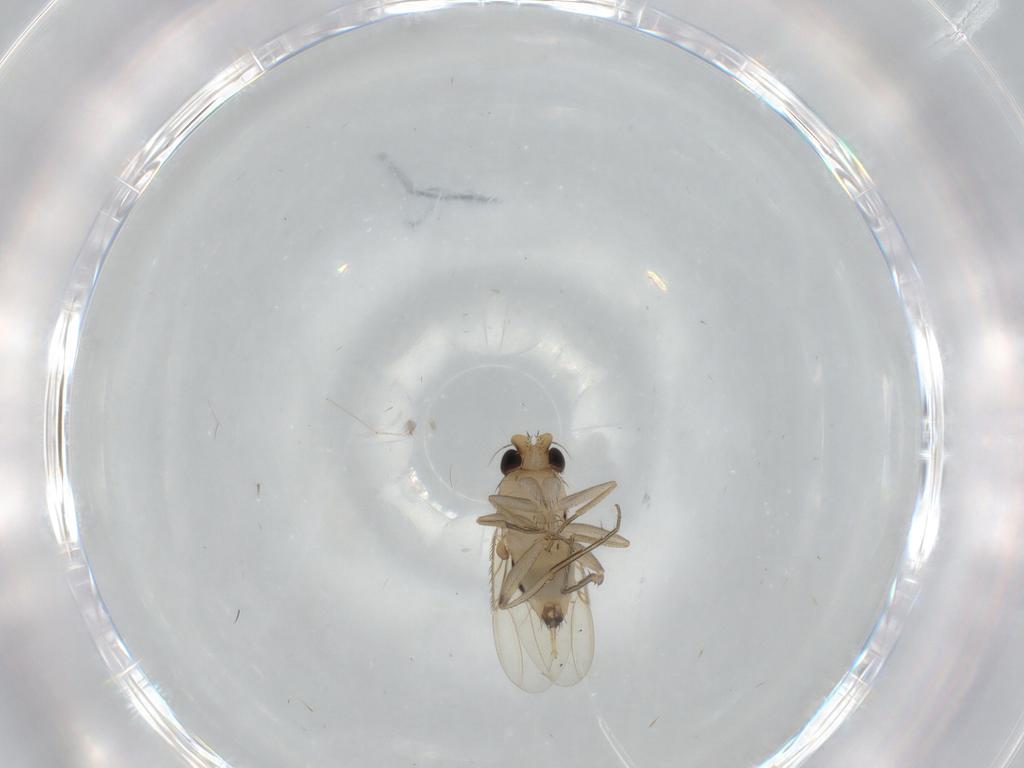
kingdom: Animalia
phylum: Arthropoda
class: Insecta
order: Diptera
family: Phoridae
